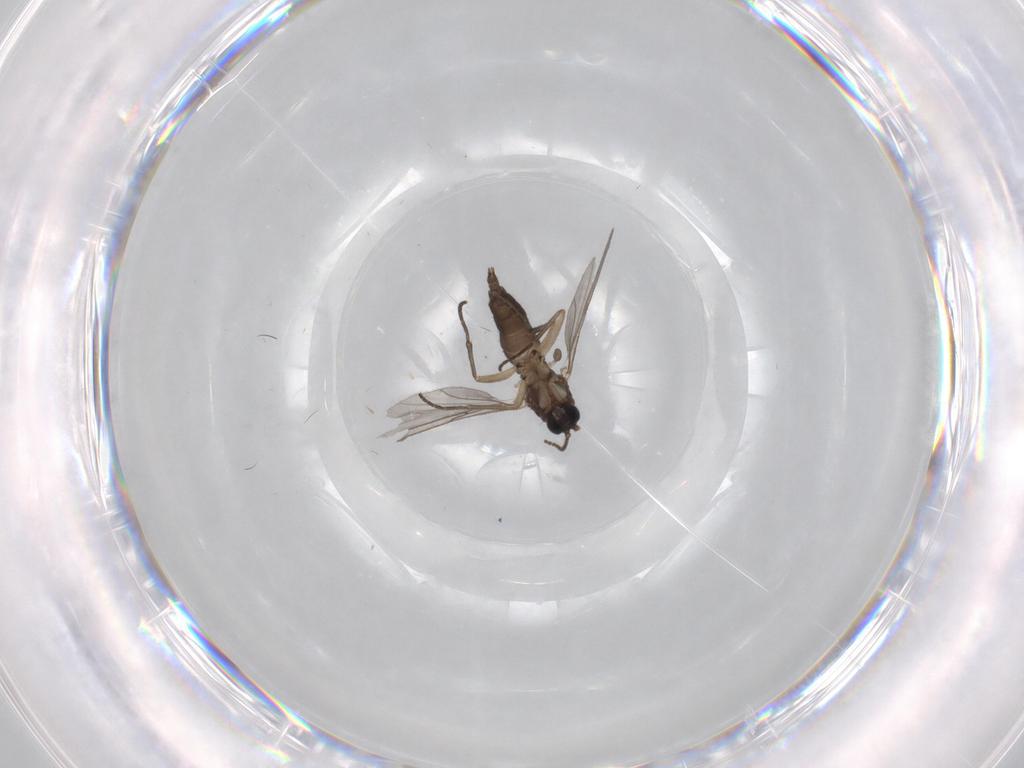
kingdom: Animalia
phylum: Arthropoda
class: Insecta
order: Diptera
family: Sciaridae
